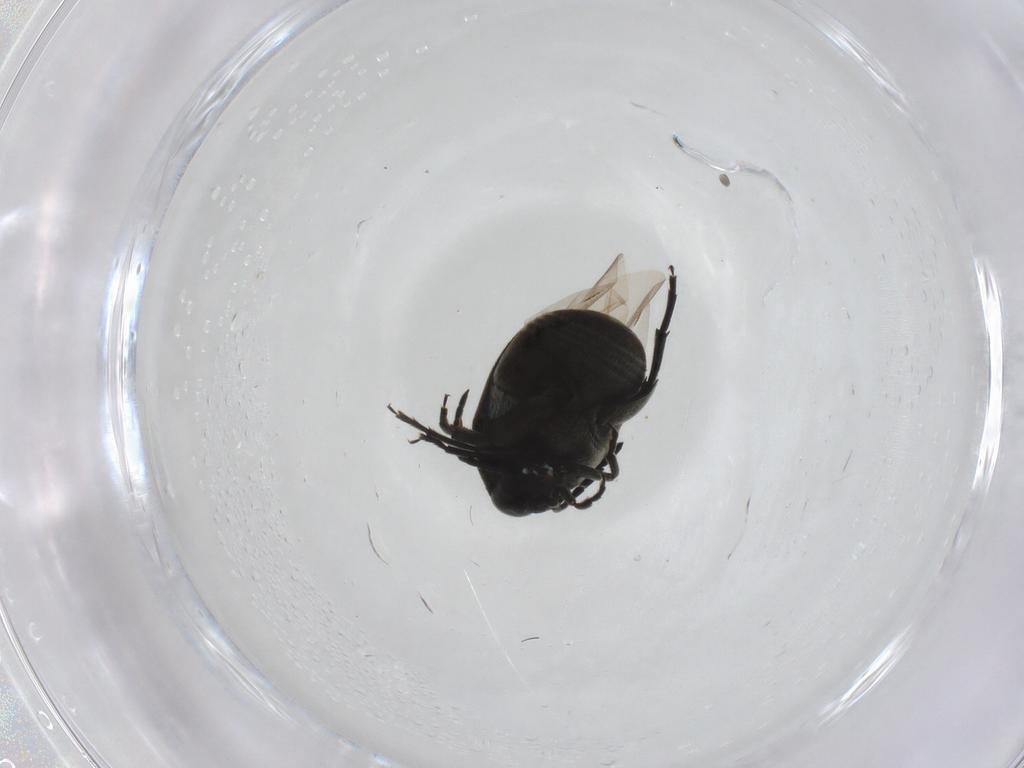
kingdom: Animalia
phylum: Arthropoda
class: Insecta
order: Coleoptera
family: Chrysomelidae
